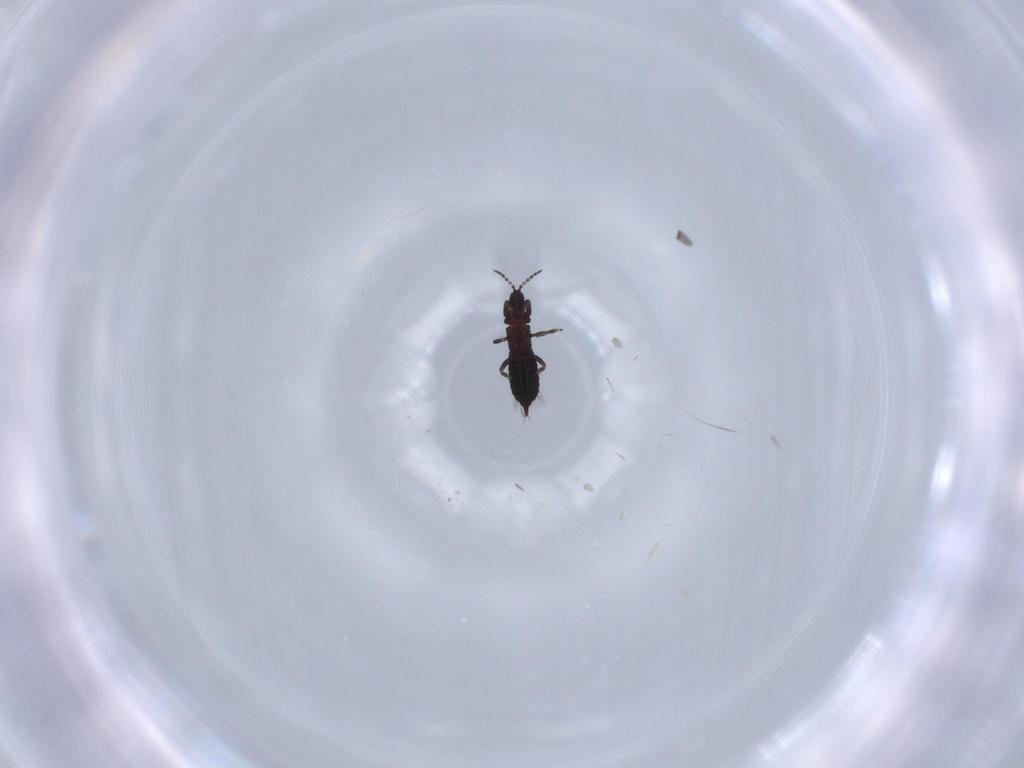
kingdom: Animalia
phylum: Arthropoda
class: Insecta
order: Thysanoptera
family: Phlaeothripidae
